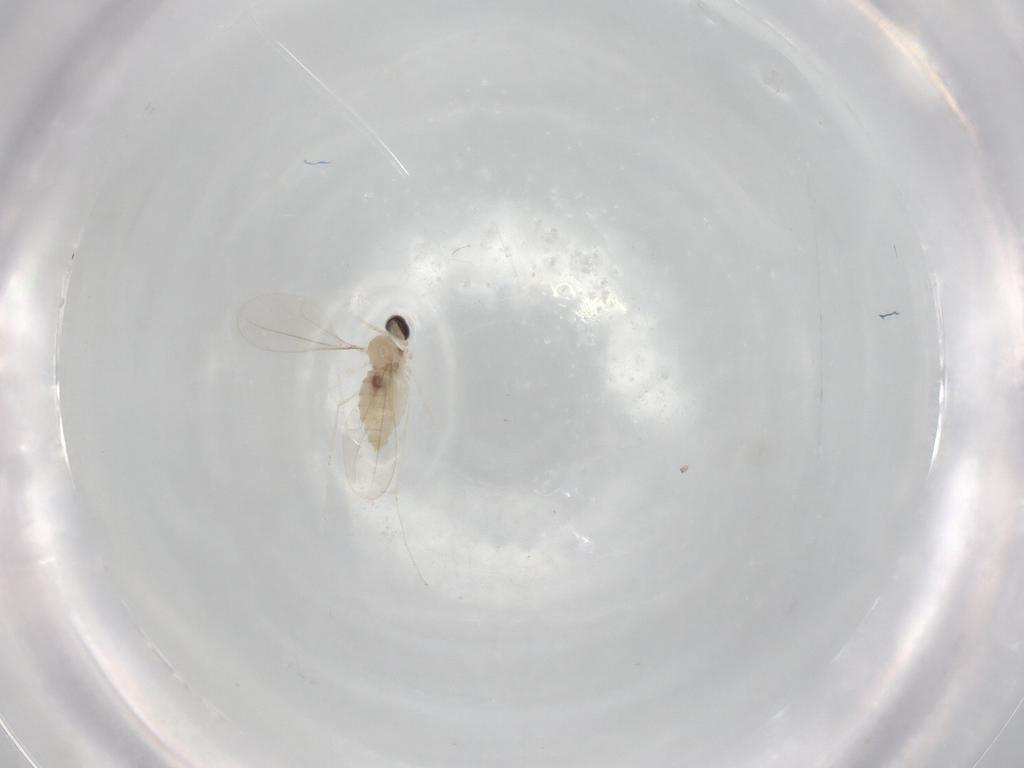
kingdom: Animalia
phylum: Arthropoda
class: Insecta
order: Diptera
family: Cecidomyiidae
